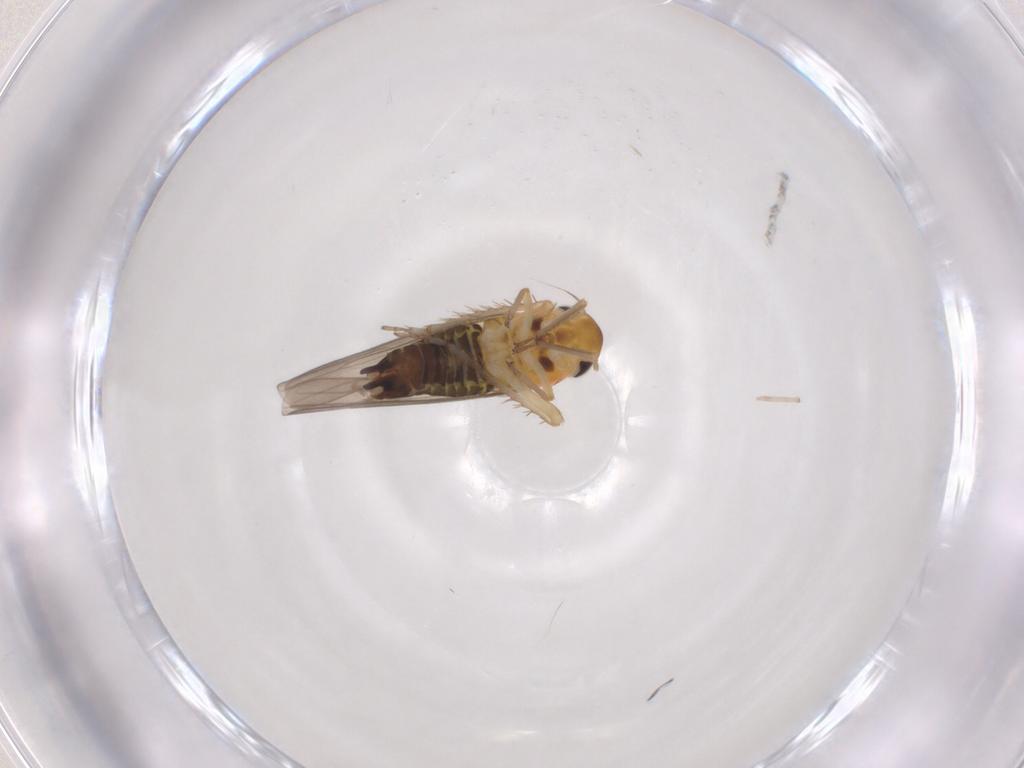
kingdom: Animalia
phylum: Arthropoda
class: Insecta
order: Hemiptera
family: Cicadellidae
